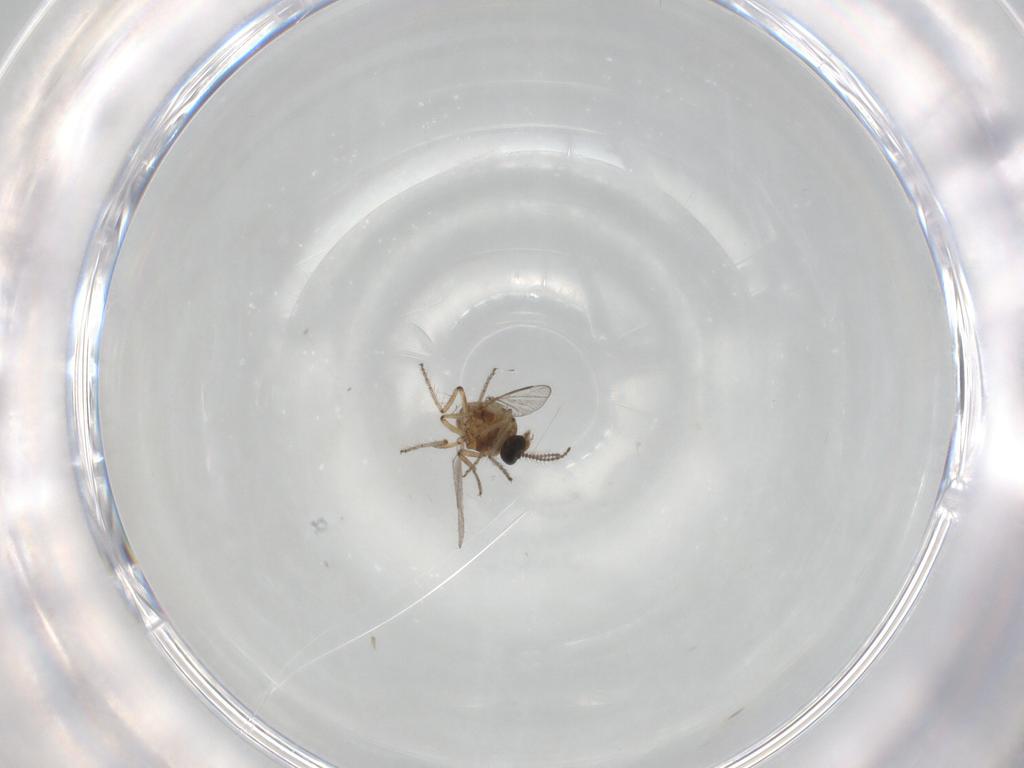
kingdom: Animalia
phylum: Arthropoda
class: Insecta
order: Diptera
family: Ceratopogonidae
